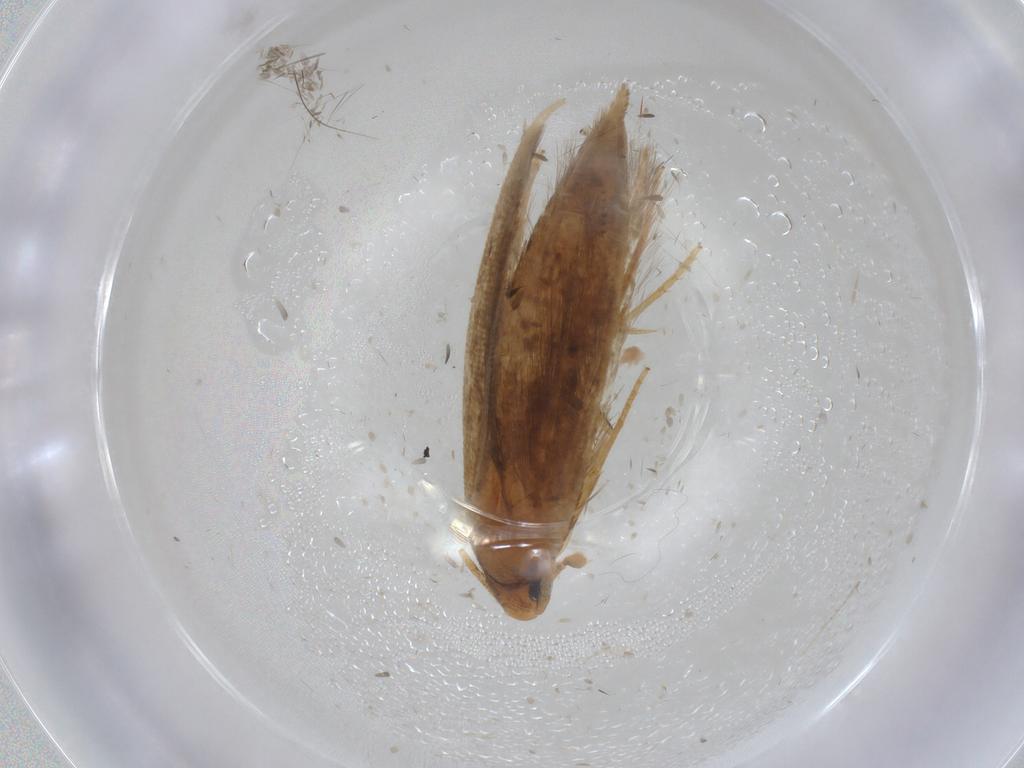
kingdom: Animalia
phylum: Arthropoda
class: Insecta
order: Lepidoptera
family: Tineidae
